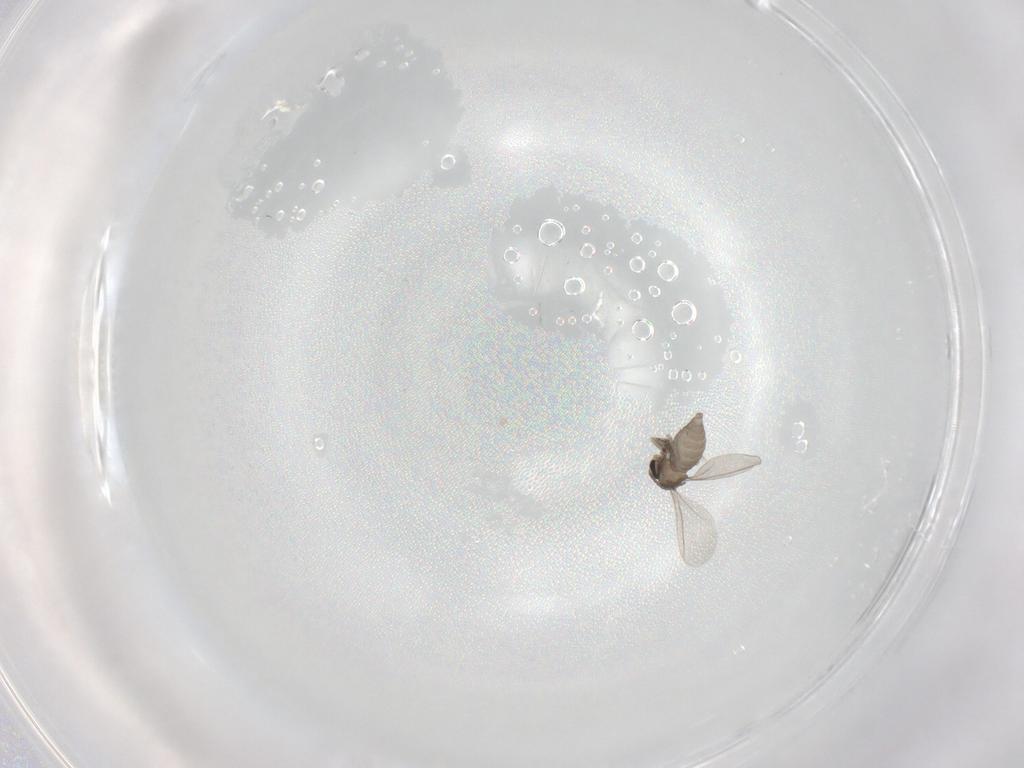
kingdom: Animalia
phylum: Arthropoda
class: Insecta
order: Diptera
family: Cecidomyiidae
